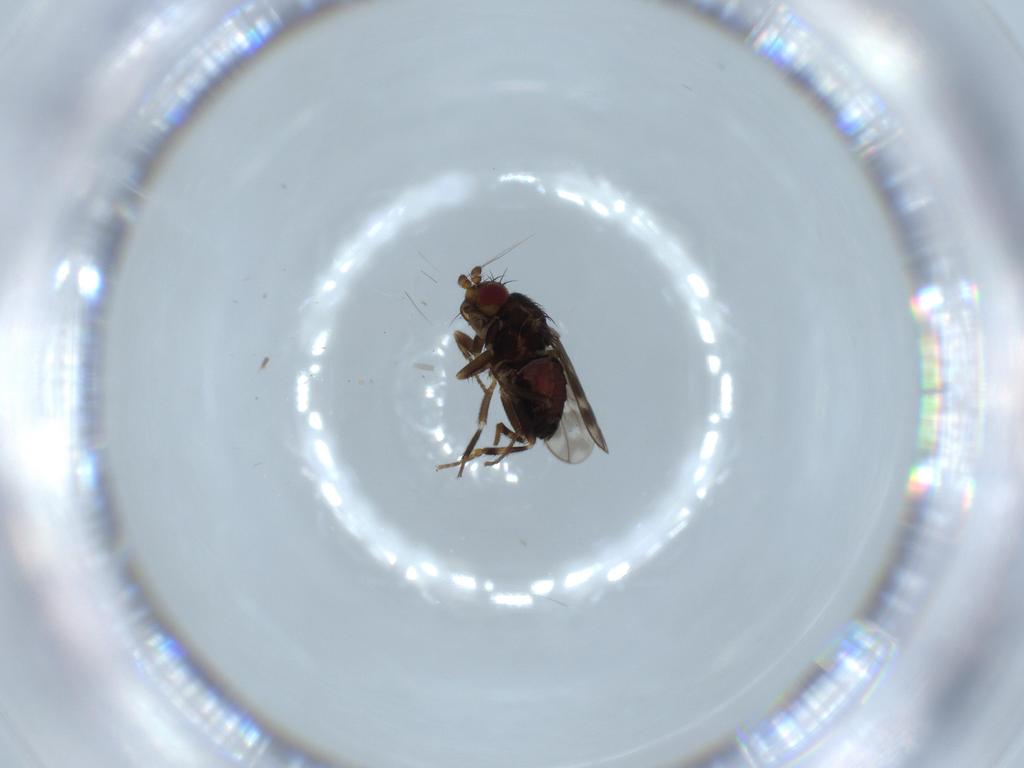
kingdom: Animalia
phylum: Arthropoda
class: Insecta
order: Diptera
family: Sphaeroceridae
